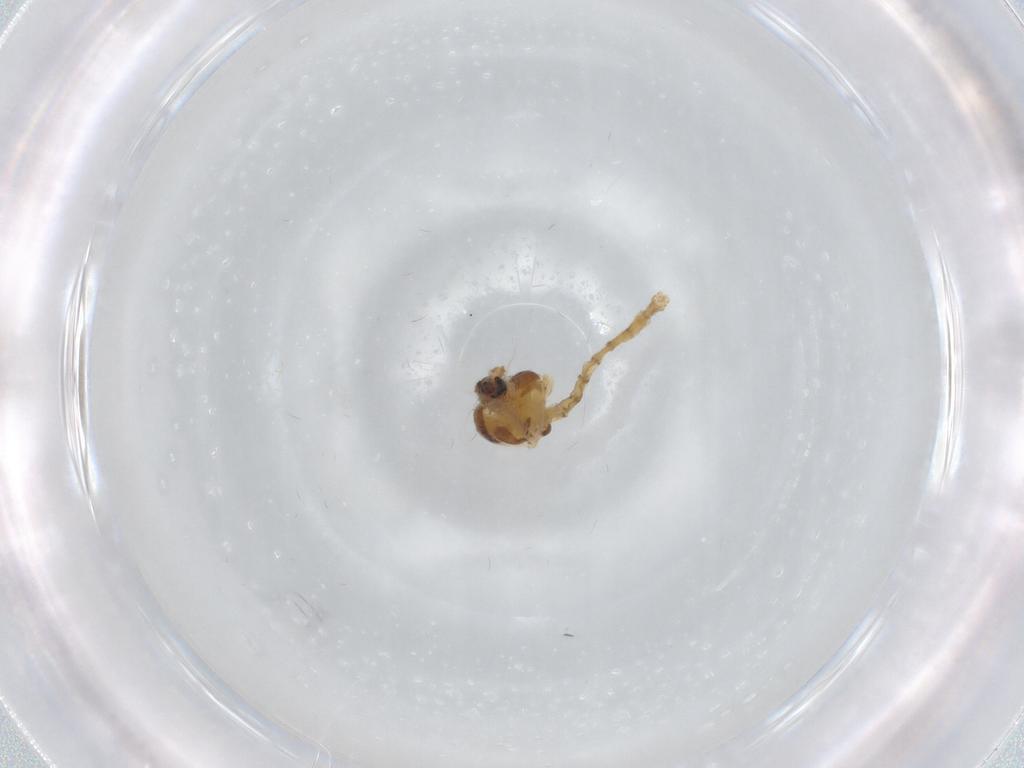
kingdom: Animalia
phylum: Arthropoda
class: Insecta
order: Diptera
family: Chironomidae
